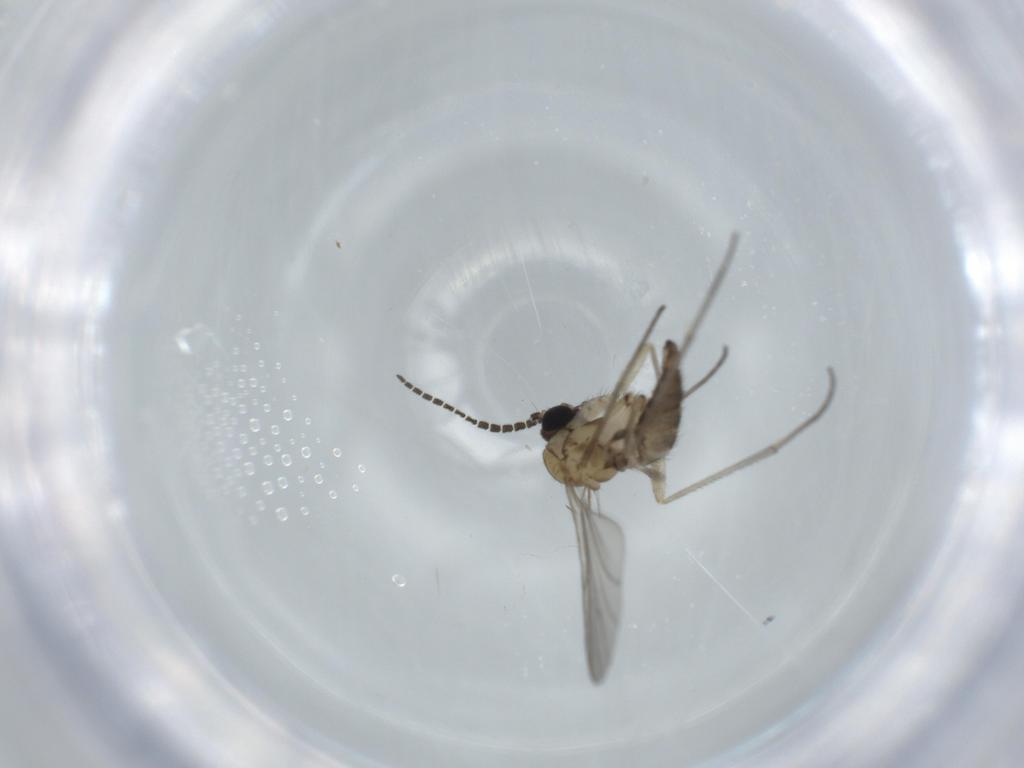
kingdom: Animalia
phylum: Arthropoda
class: Insecta
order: Diptera
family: Sciaridae
